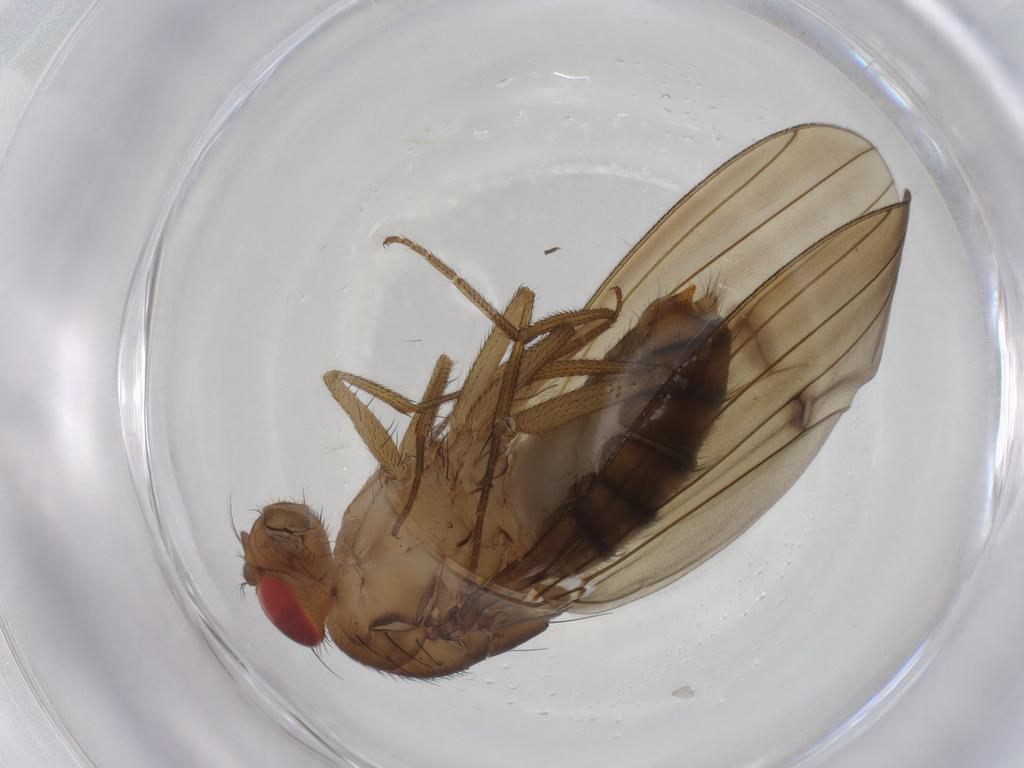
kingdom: Animalia
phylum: Arthropoda
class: Insecta
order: Diptera
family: Drosophilidae
